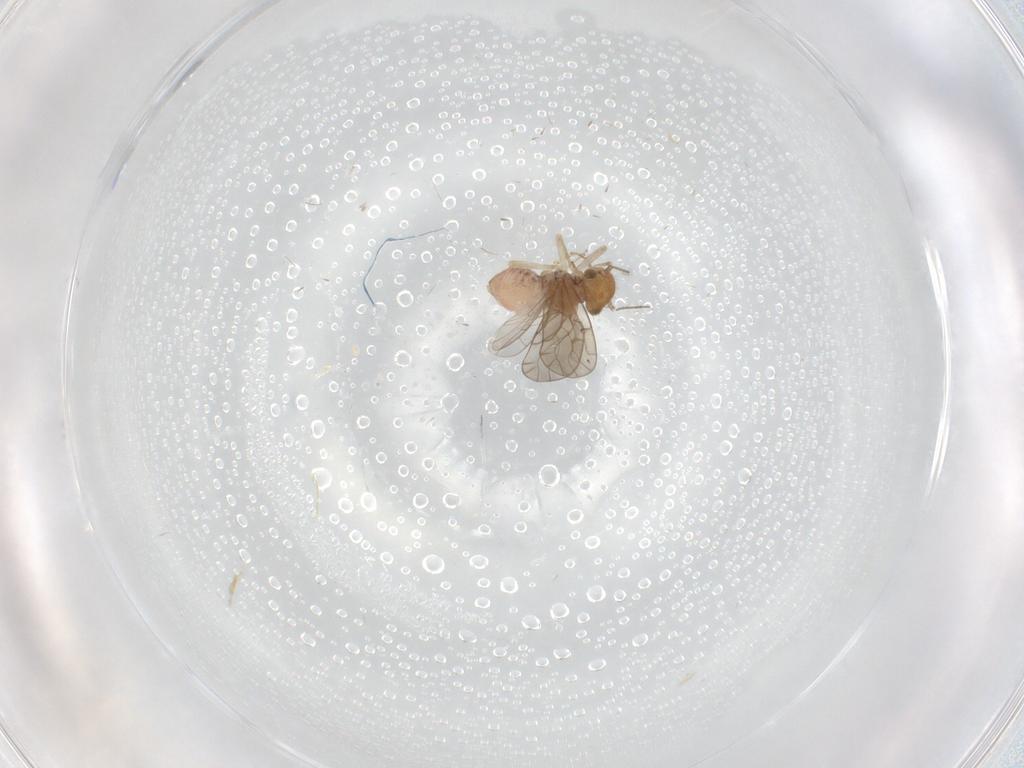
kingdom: Animalia
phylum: Arthropoda
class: Insecta
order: Psocodea
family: Ectopsocidae
